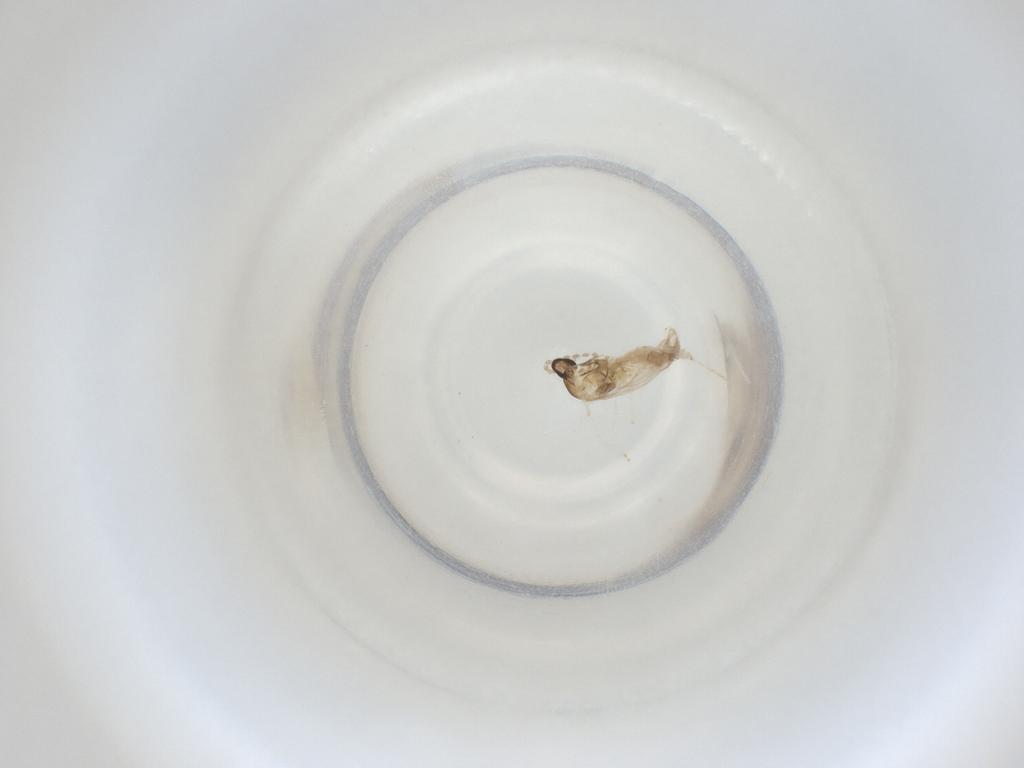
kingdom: Animalia
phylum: Arthropoda
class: Insecta
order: Diptera
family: Cecidomyiidae
